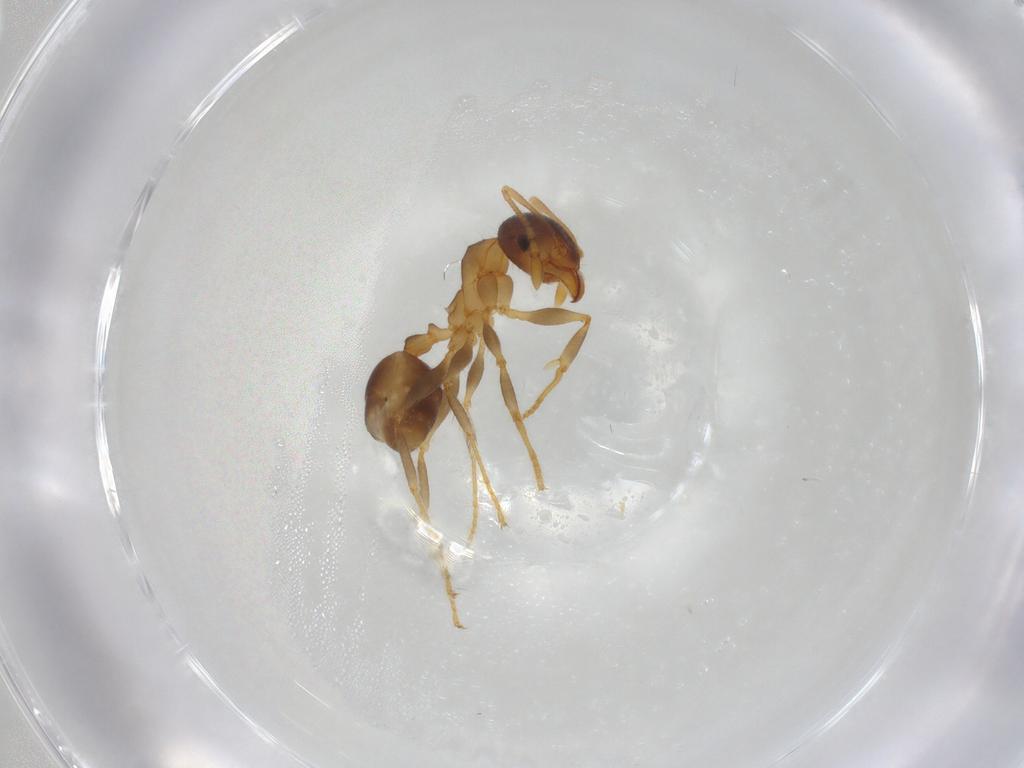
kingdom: Animalia
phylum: Arthropoda
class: Insecta
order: Hymenoptera
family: Formicidae
